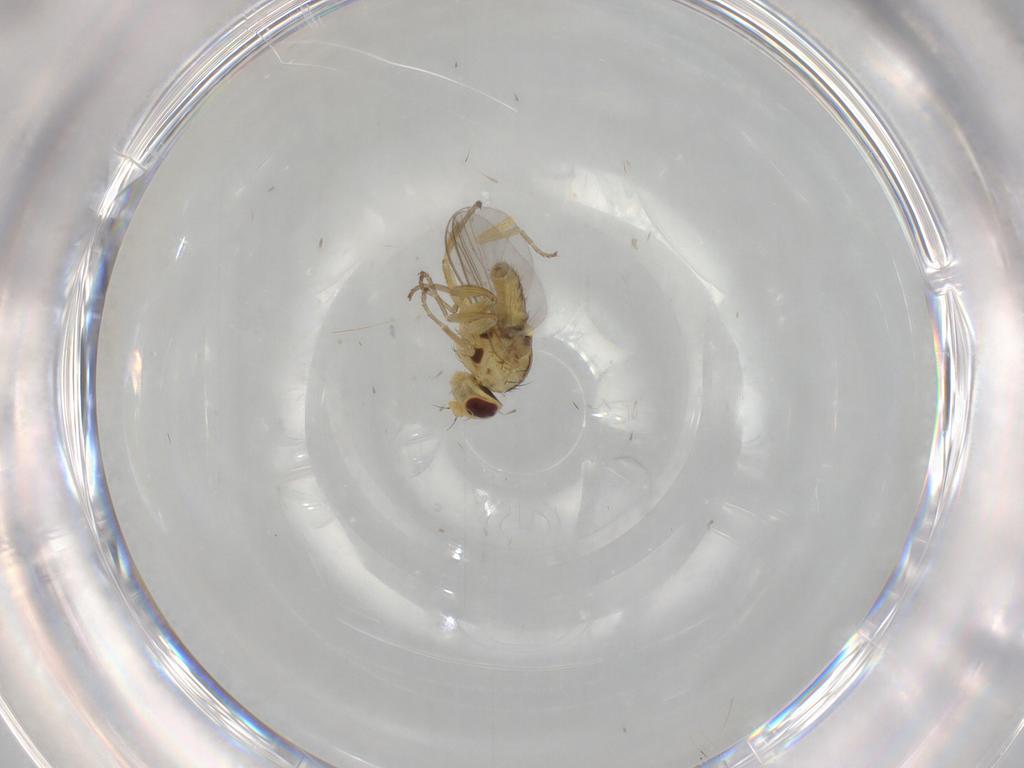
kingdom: Animalia
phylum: Arthropoda
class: Insecta
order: Diptera
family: Agromyzidae
